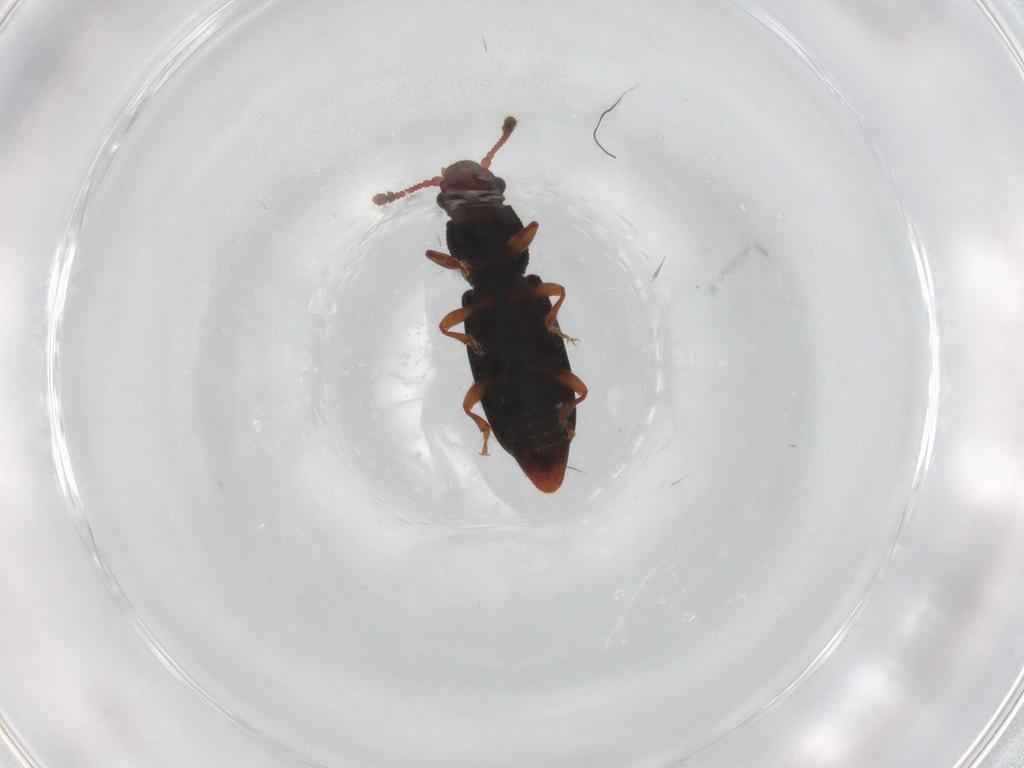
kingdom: Animalia
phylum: Arthropoda
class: Insecta
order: Coleoptera
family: Monotomidae
